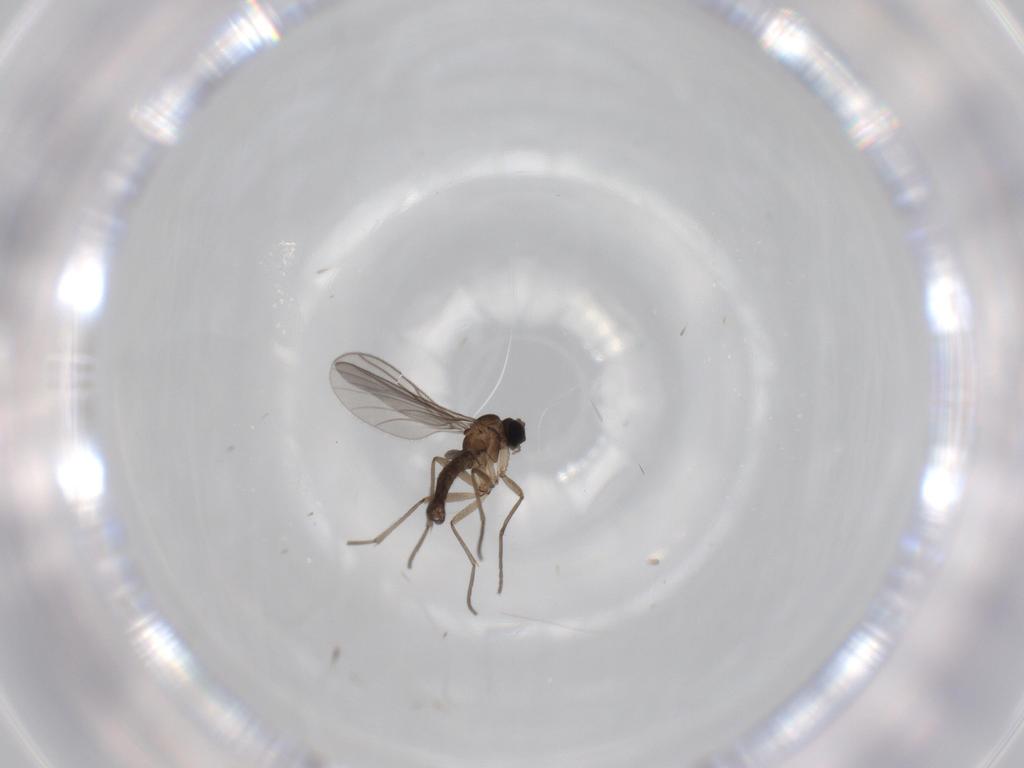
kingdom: Animalia
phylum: Arthropoda
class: Insecta
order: Diptera
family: Sciaridae
